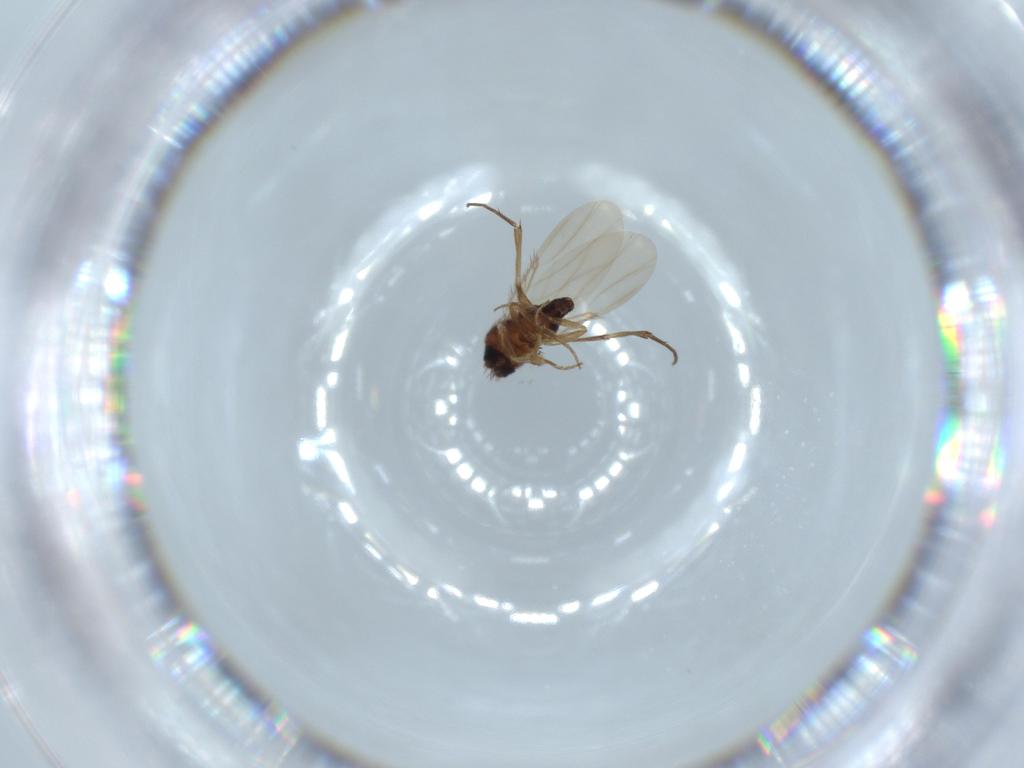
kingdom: Animalia
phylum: Arthropoda
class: Insecta
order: Diptera
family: Phoridae
